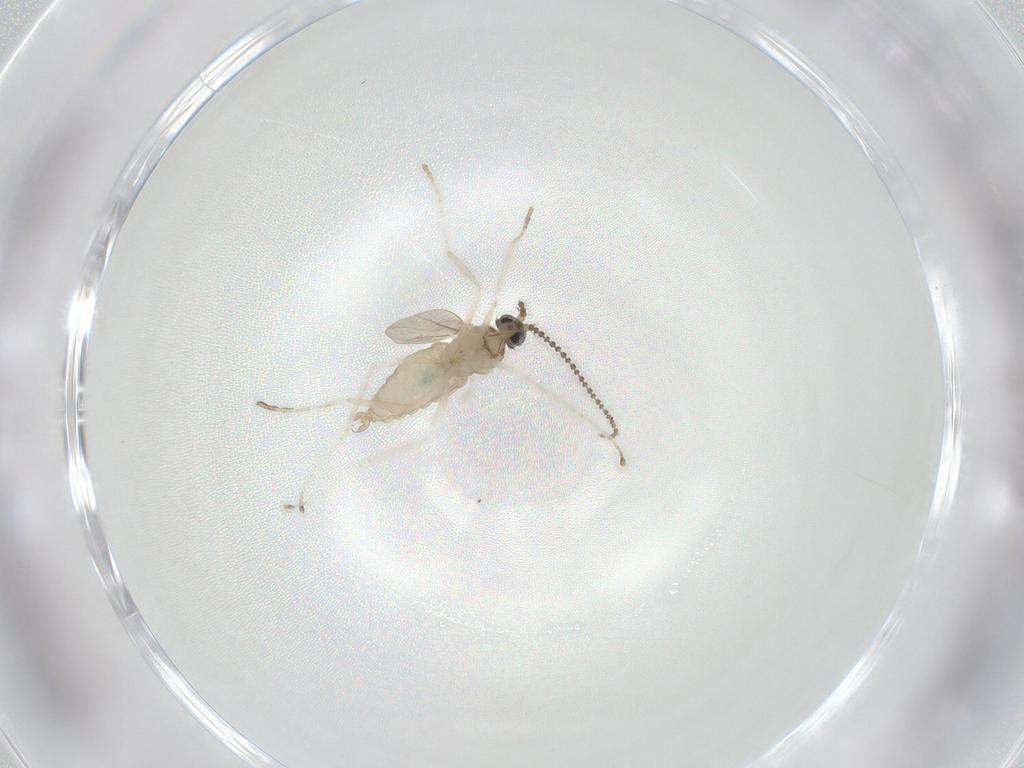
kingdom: Animalia
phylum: Arthropoda
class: Insecta
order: Diptera
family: Cecidomyiidae
